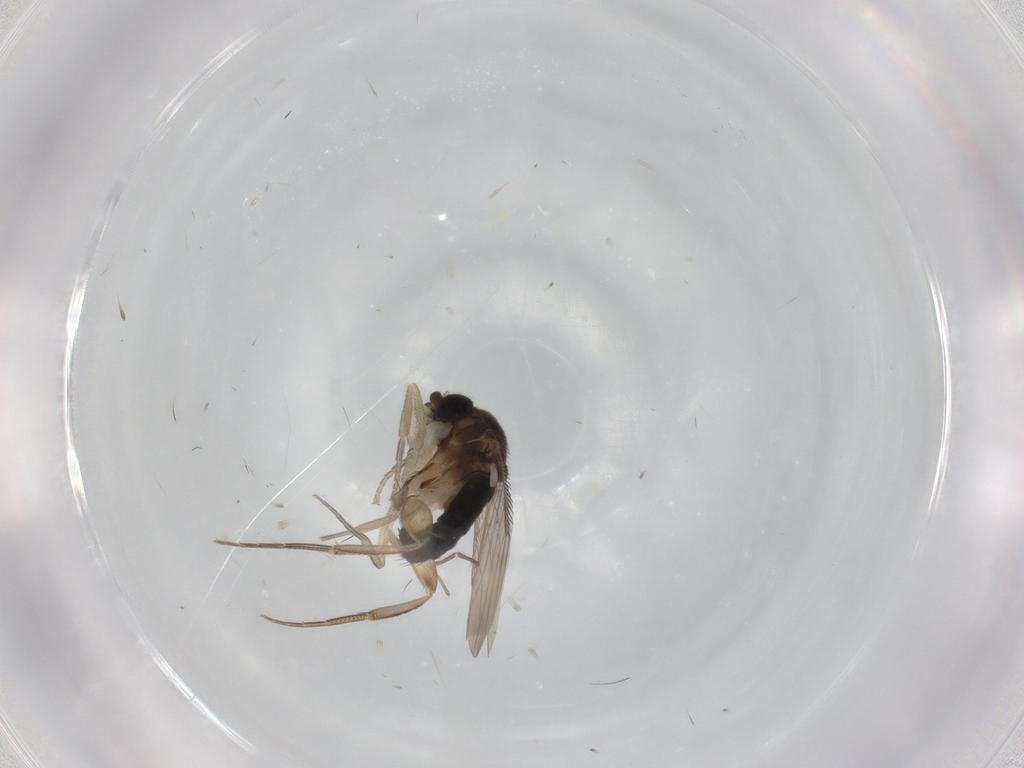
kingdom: Animalia
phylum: Arthropoda
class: Insecta
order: Diptera
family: Phoridae
